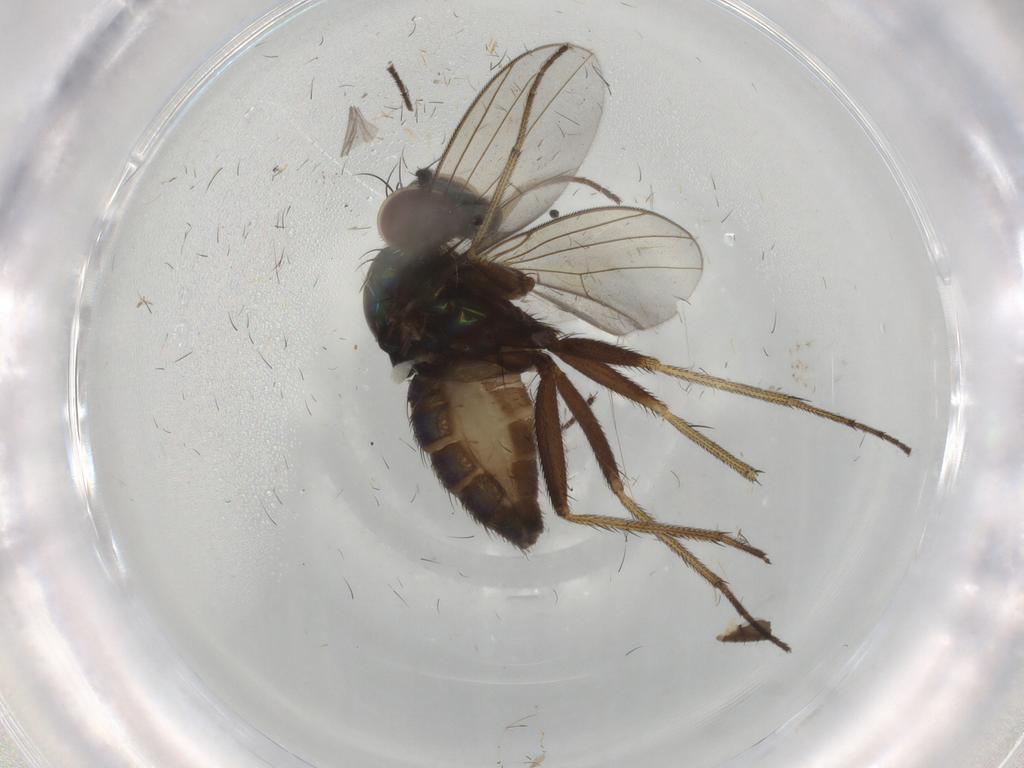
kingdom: Animalia
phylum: Arthropoda
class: Insecta
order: Diptera
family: Dolichopodidae
